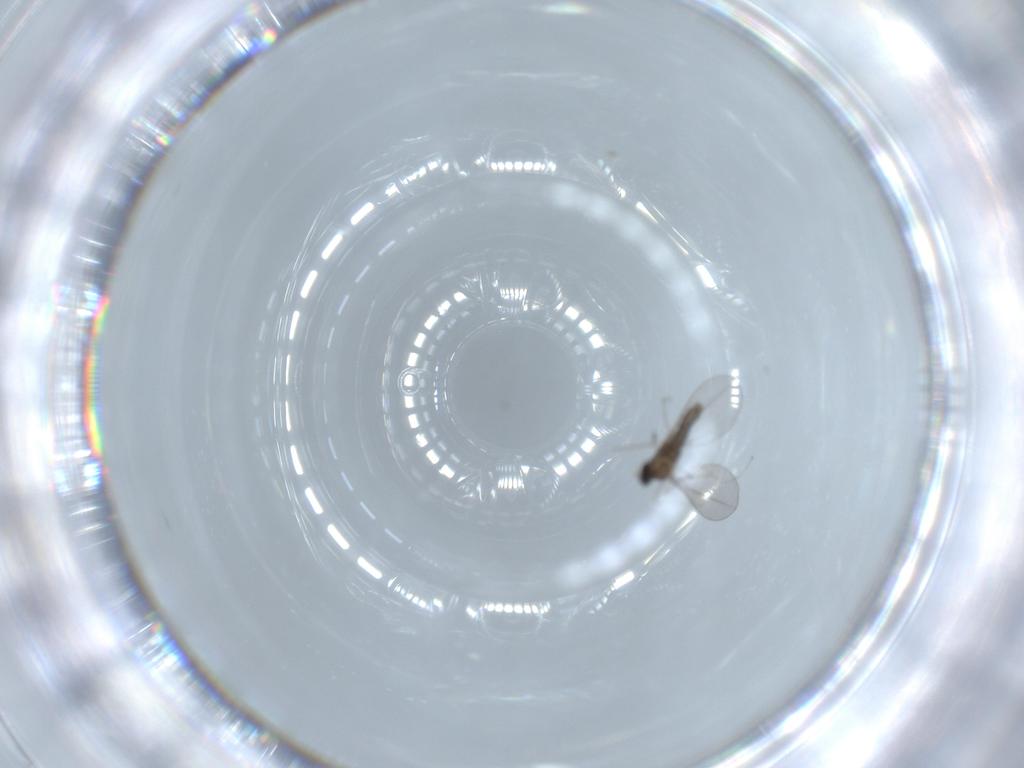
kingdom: Animalia
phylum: Arthropoda
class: Insecta
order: Diptera
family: Cecidomyiidae
